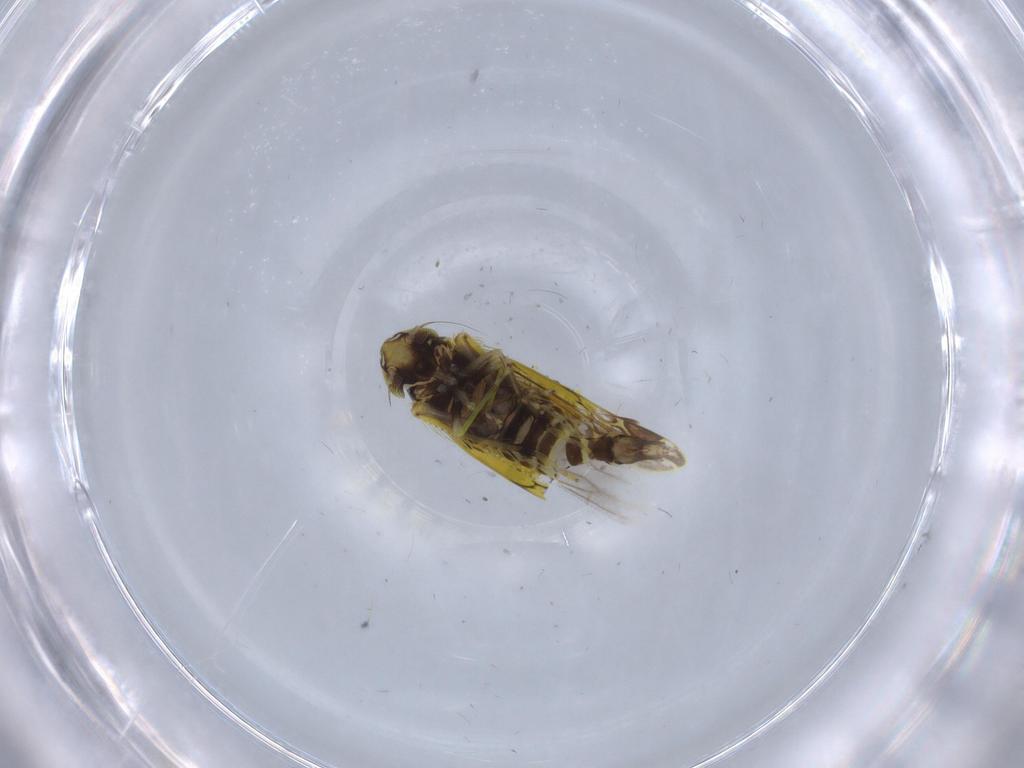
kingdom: Animalia
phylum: Arthropoda
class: Insecta
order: Hemiptera
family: Cicadellidae
